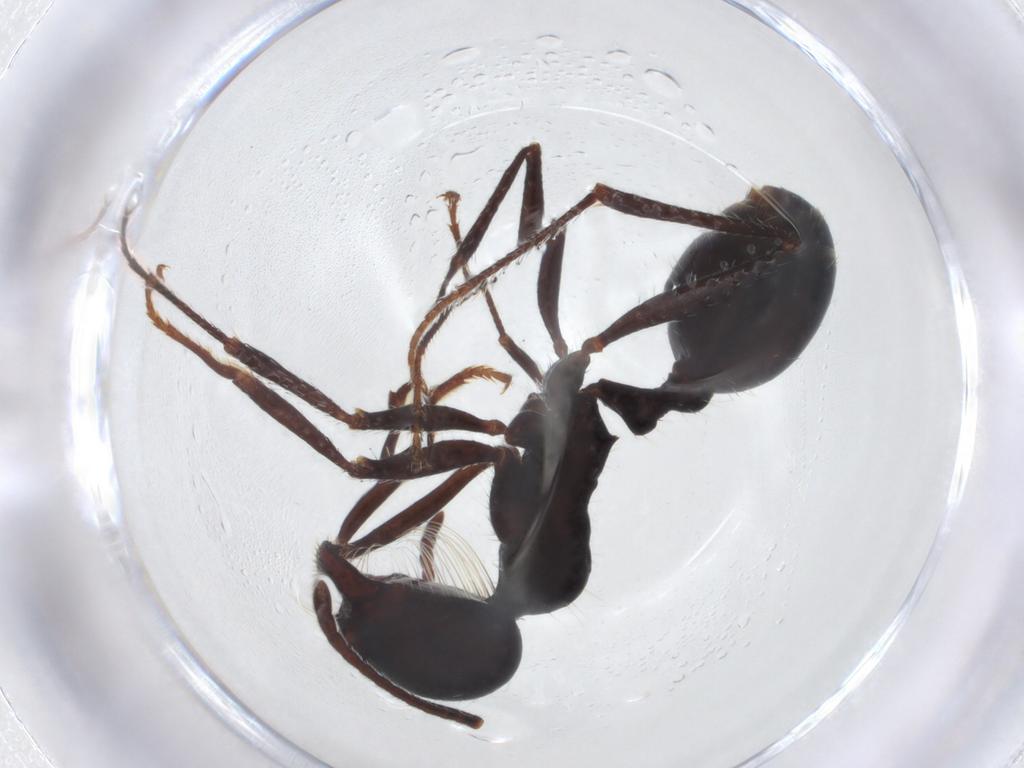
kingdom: Animalia
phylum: Arthropoda
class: Insecta
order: Hymenoptera
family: Formicidae
